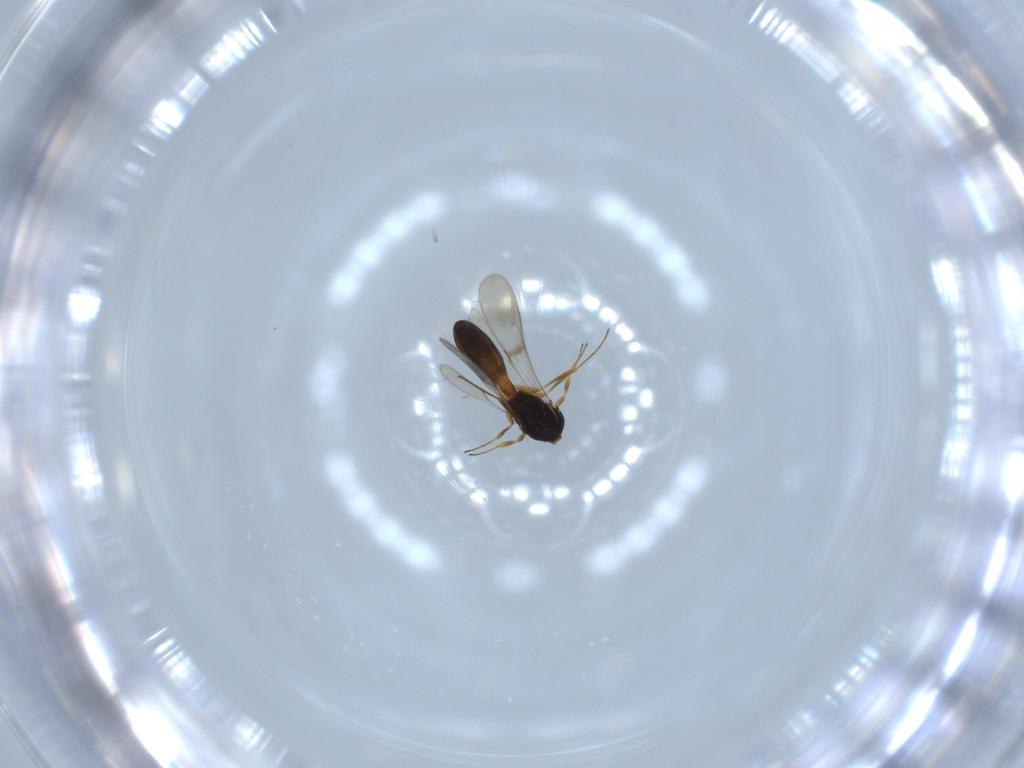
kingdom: Animalia
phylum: Arthropoda
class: Insecta
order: Hymenoptera
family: Scelionidae
